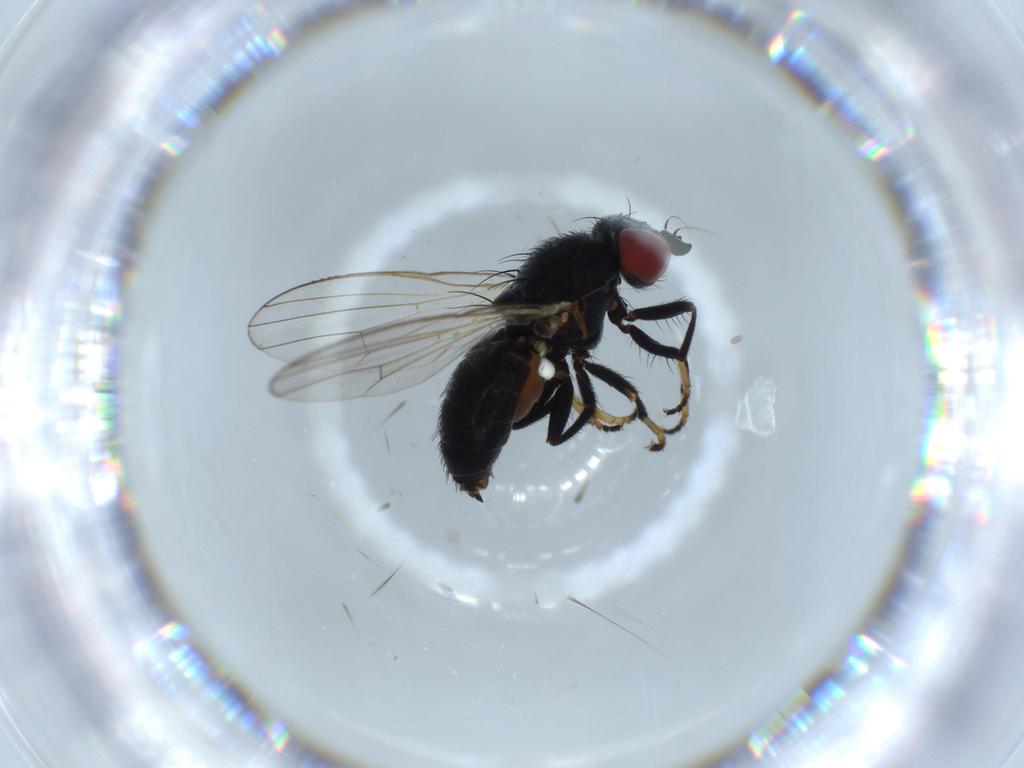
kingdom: Animalia
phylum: Arthropoda
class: Insecta
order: Diptera
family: Chamaemyiidae
